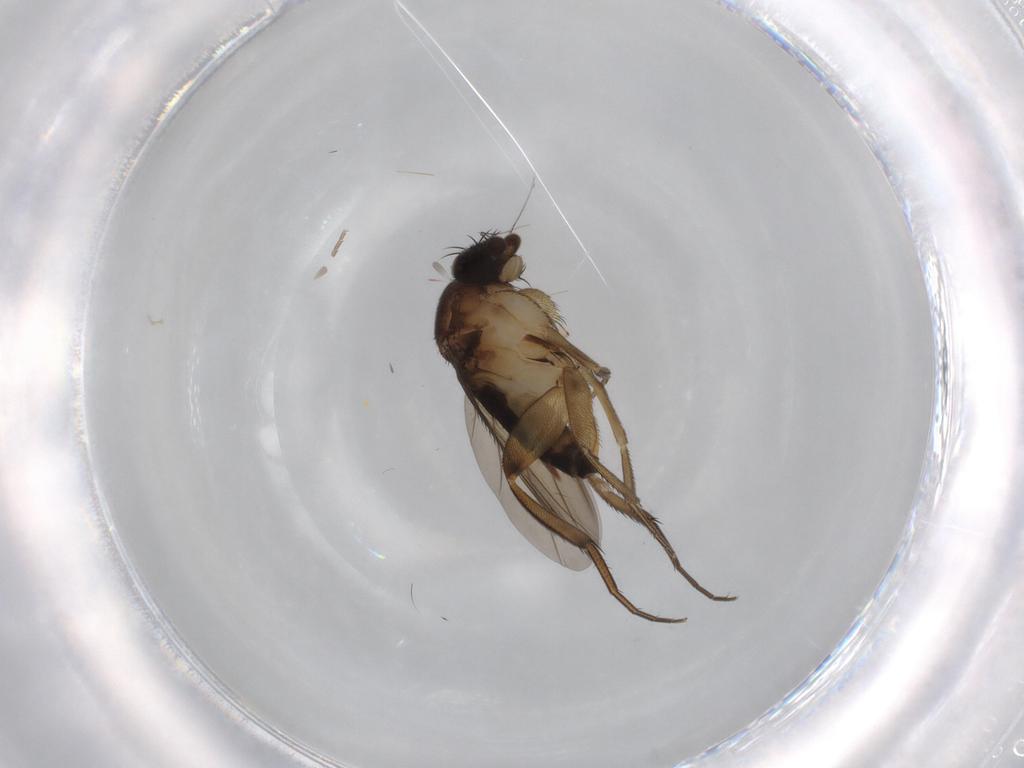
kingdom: Animalia
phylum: Arthropoda
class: Insecta
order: Diptera
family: Phoridae
